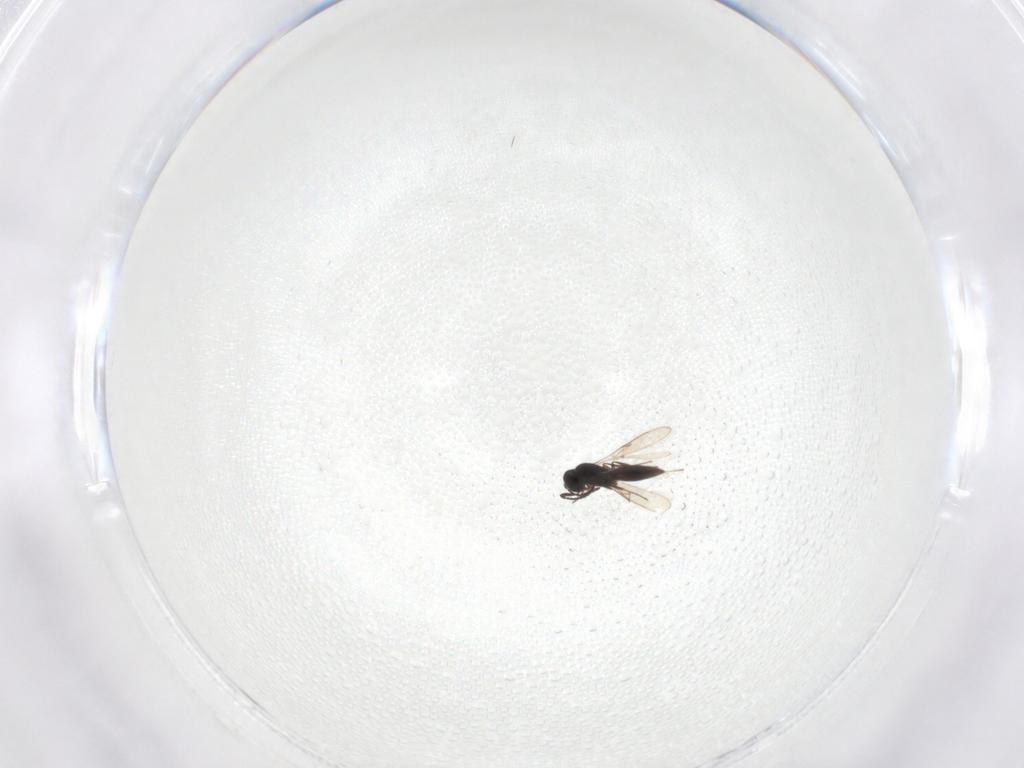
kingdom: Animalia
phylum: Arthropoda
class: Insecta
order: Hymenoptera
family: Scelionidae
